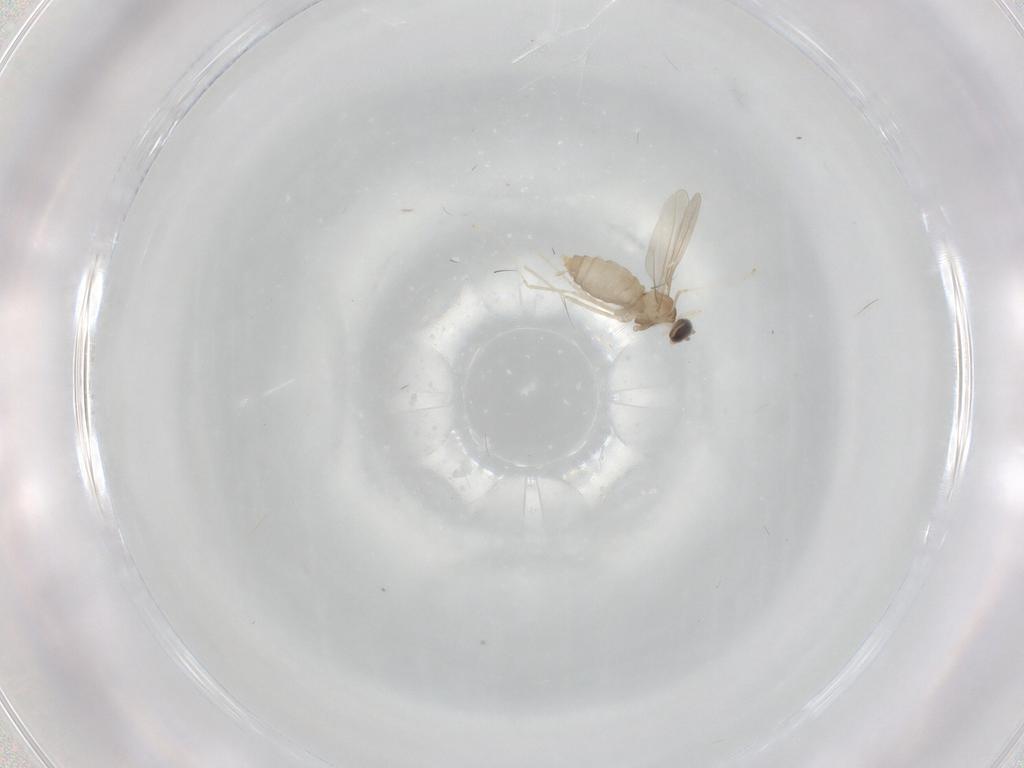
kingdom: Animalia
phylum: Arthropoda
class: Insecta
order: Diptera
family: Cecidomyiidae
